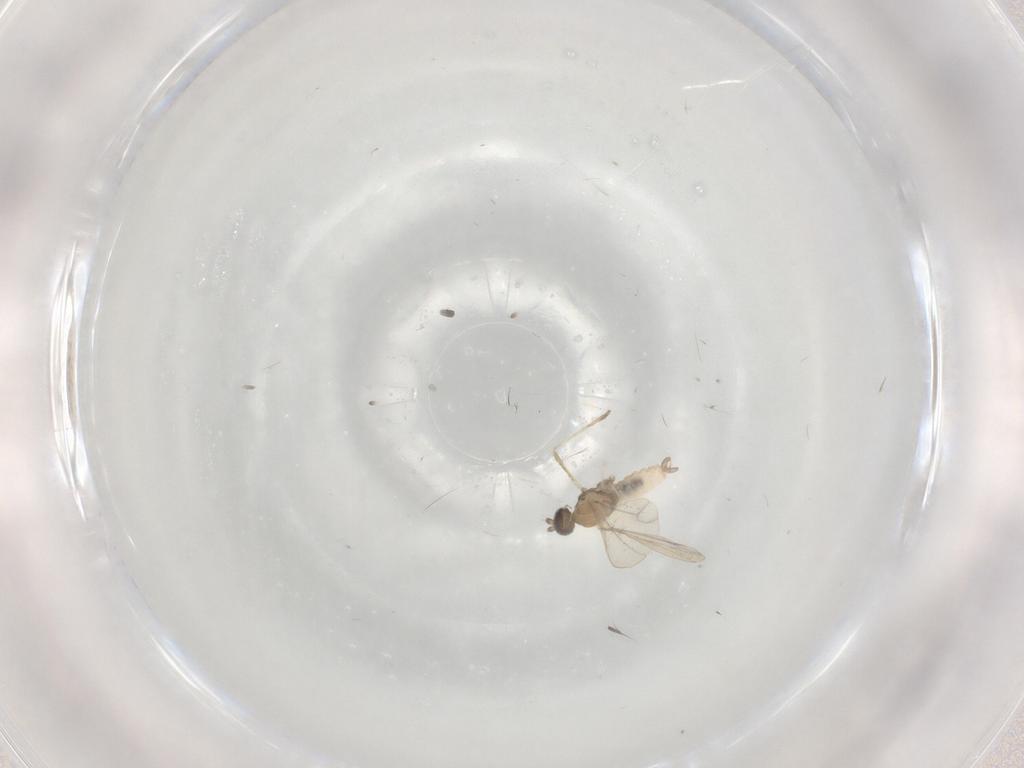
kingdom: Animalia
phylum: Arthropoda
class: Insecta
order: Diptera
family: Cecidomyiidae
